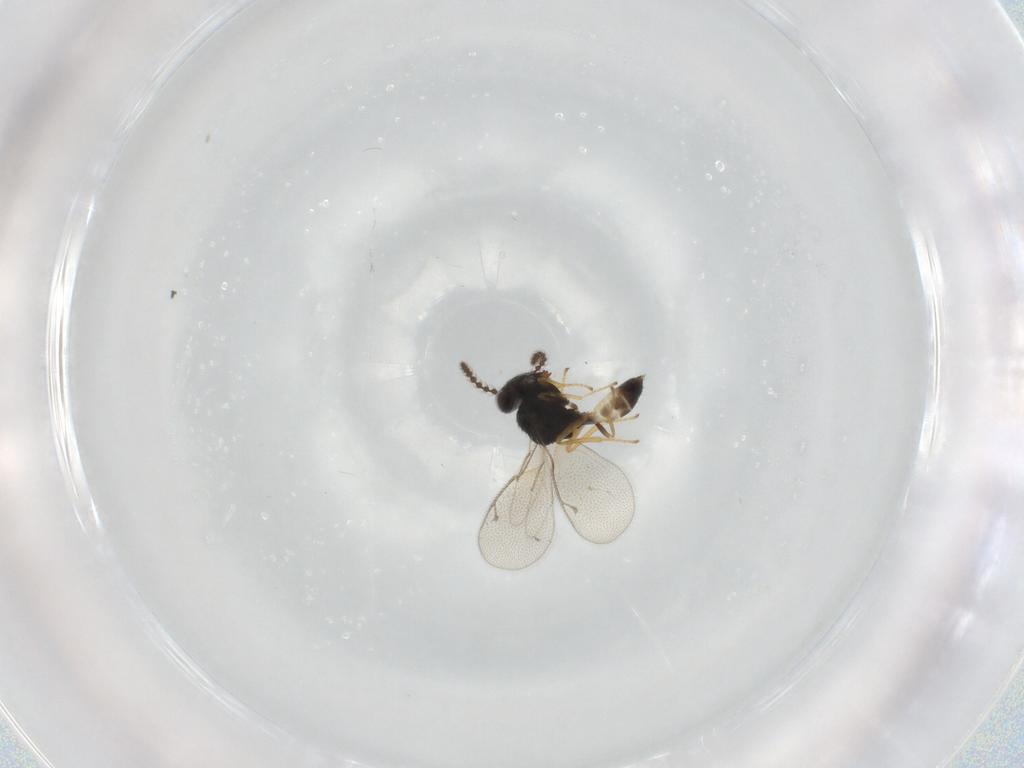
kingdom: Animalia
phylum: Arthropoda
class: Insecta
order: Hymenoptera
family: Pteromalidae
